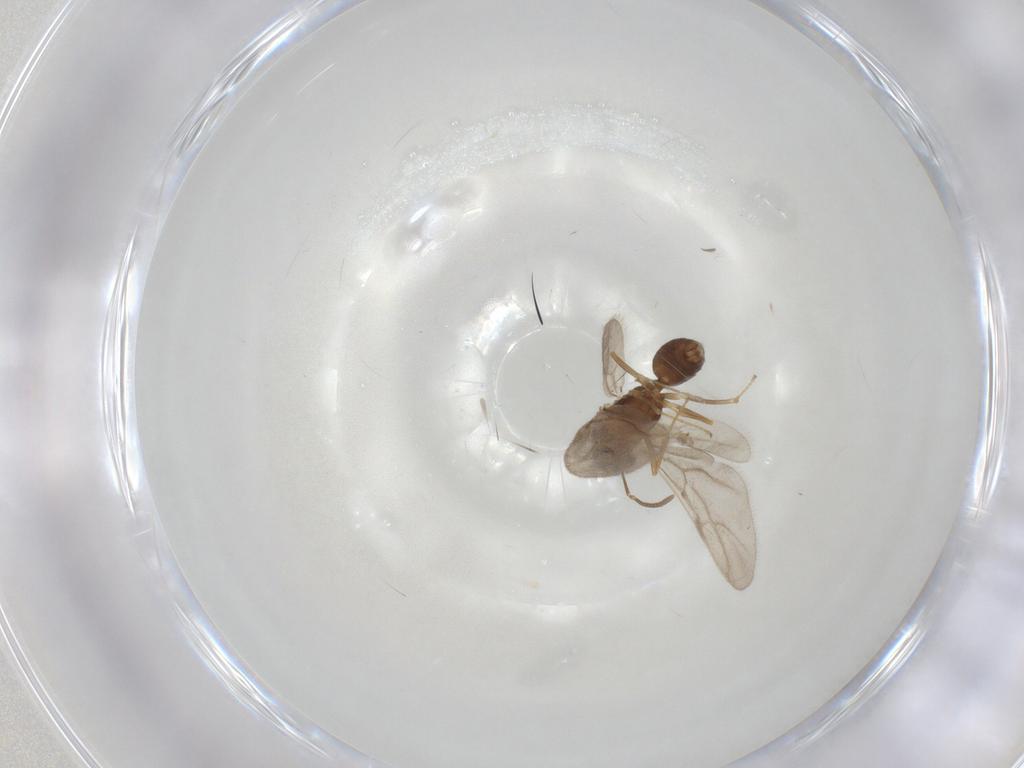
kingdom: Animalia
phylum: Arthropoda
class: Insecta
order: Hymenoptera
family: Formicidae
